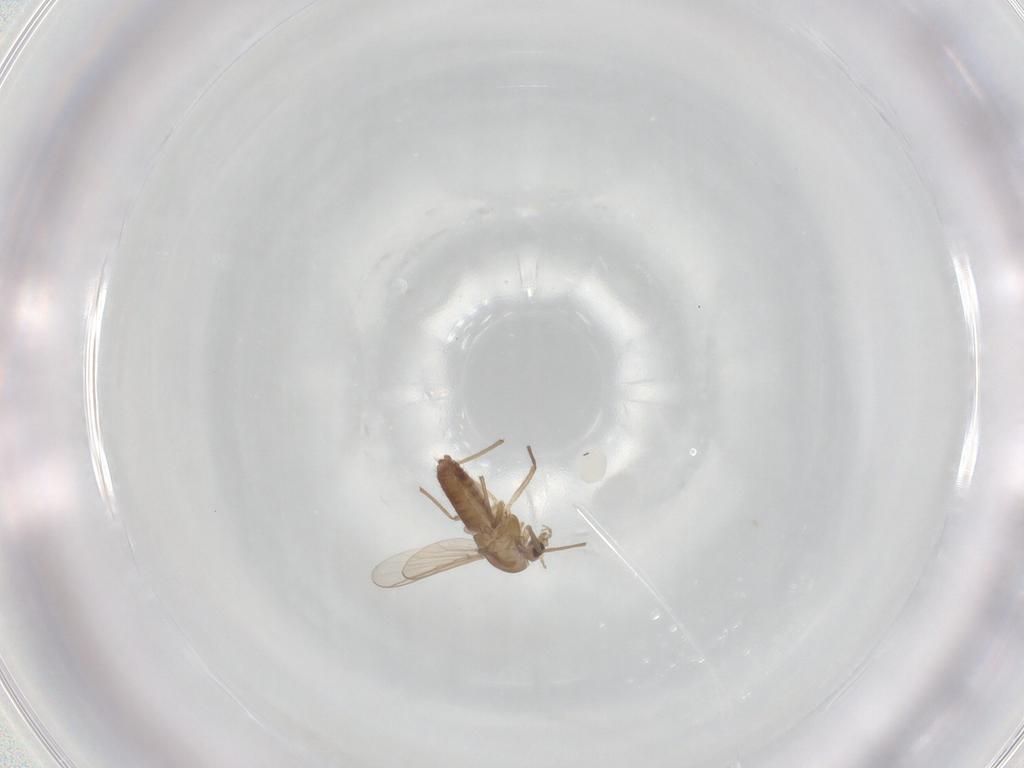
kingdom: Animalia
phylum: Arthropoda
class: Insecta
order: Diptera
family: Chironomidae
